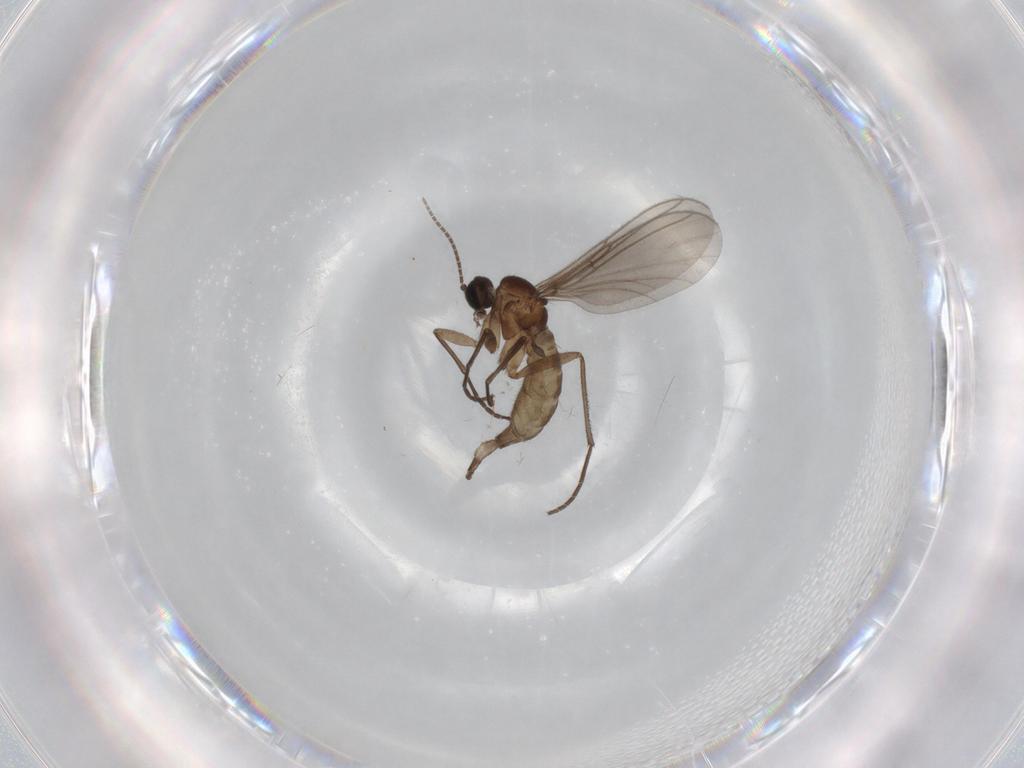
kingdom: Animalia
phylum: Arthropoda
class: Insecta
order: Diptera
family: Sciaridae
